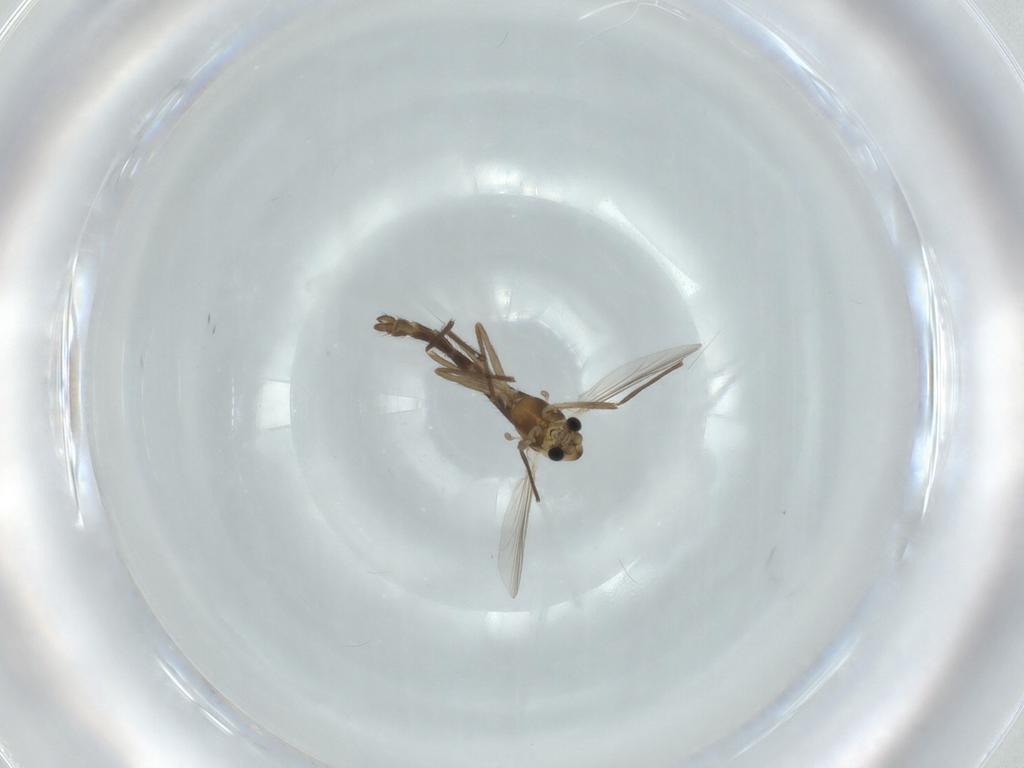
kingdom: Animalia
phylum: Arthropoda
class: Insecta
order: Diptera
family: Chironomidae
